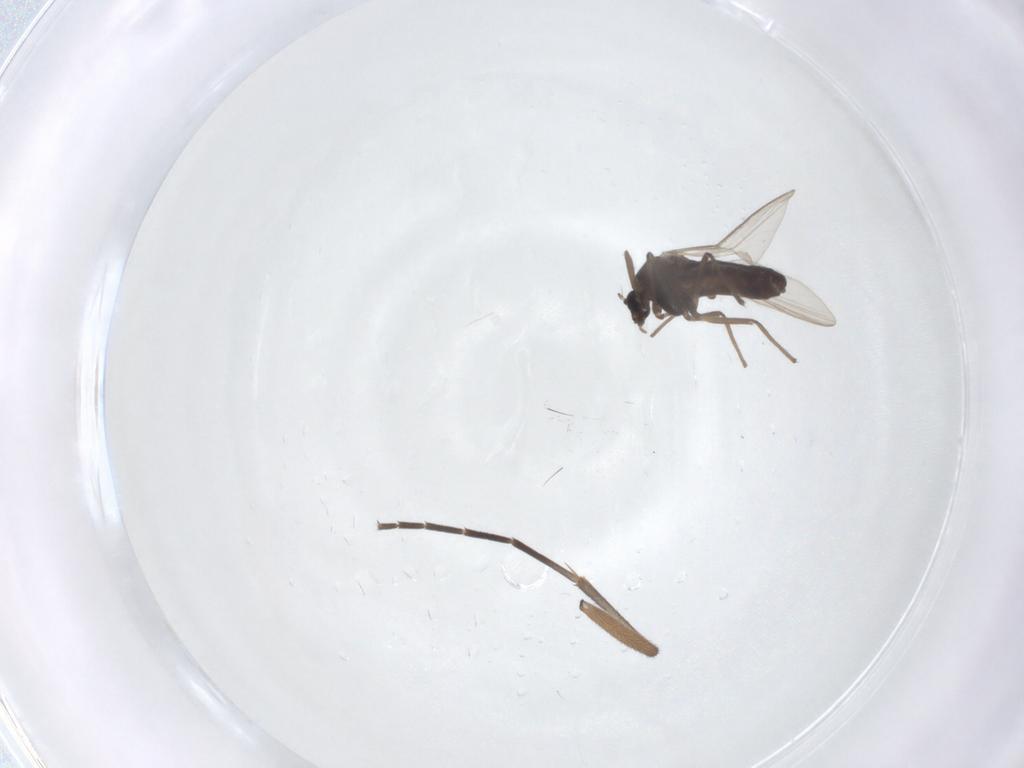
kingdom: Animalia
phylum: Arthropoda
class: Insecta
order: Diptera
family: Chironomidae
